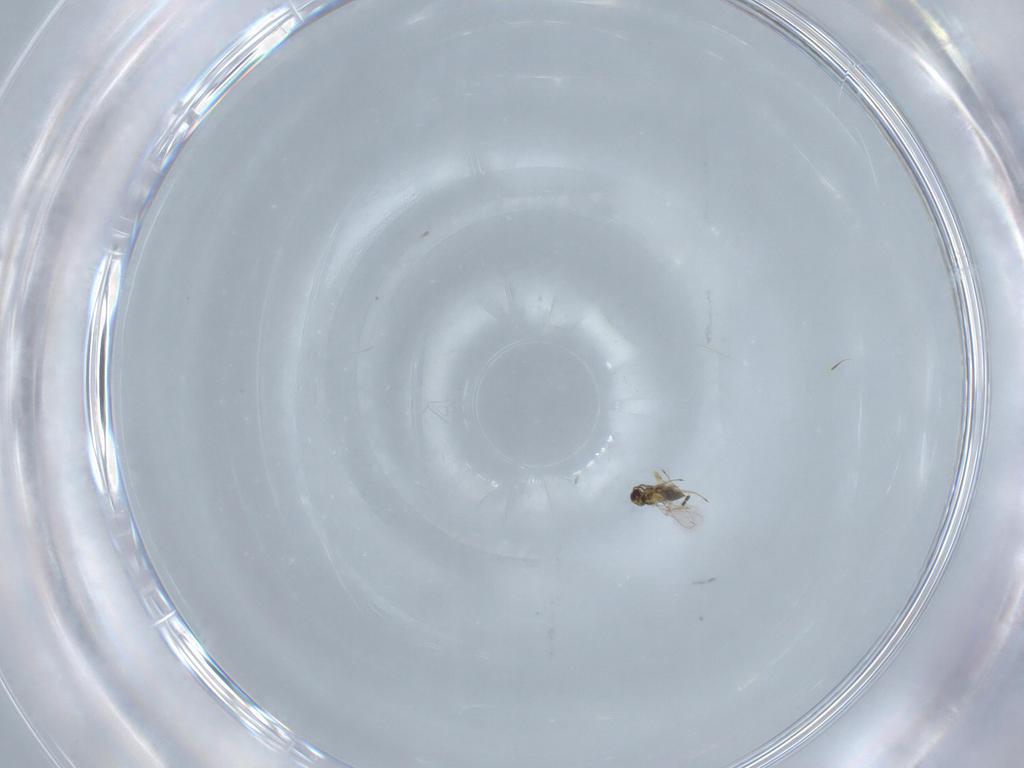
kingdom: Animalia
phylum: Arthropoda
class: Insecta
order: Hymenoptera
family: Mymaridae
